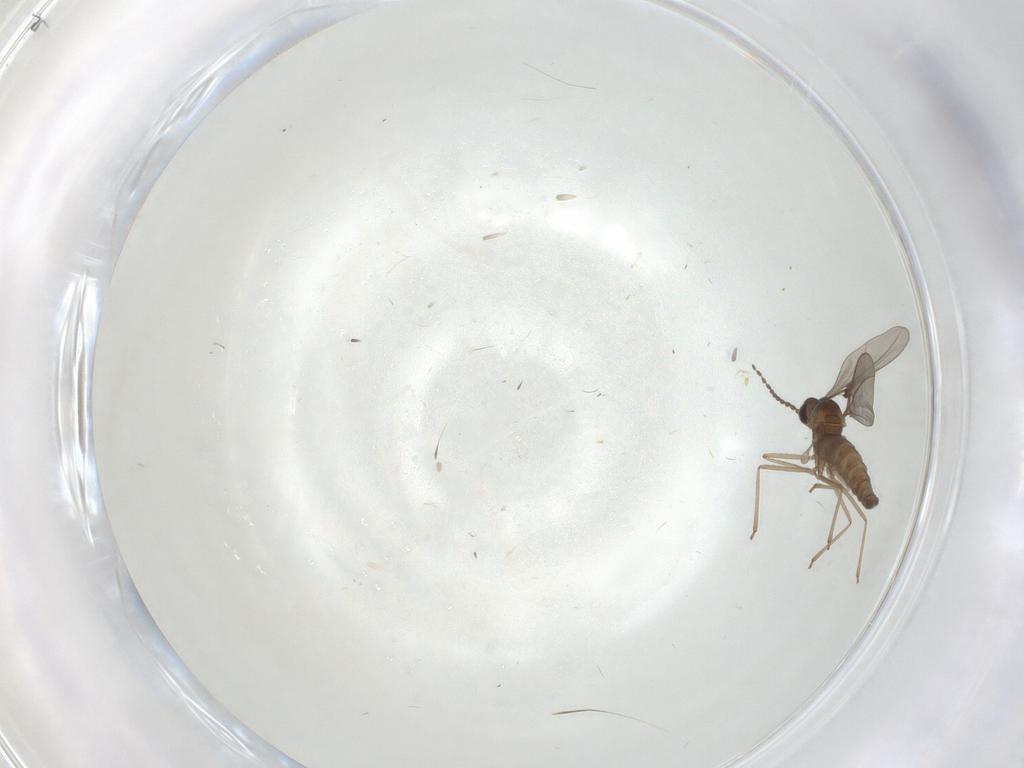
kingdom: Animalia
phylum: Arthropoda
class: Insecta
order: Diptera
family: Cecidomyiidae
